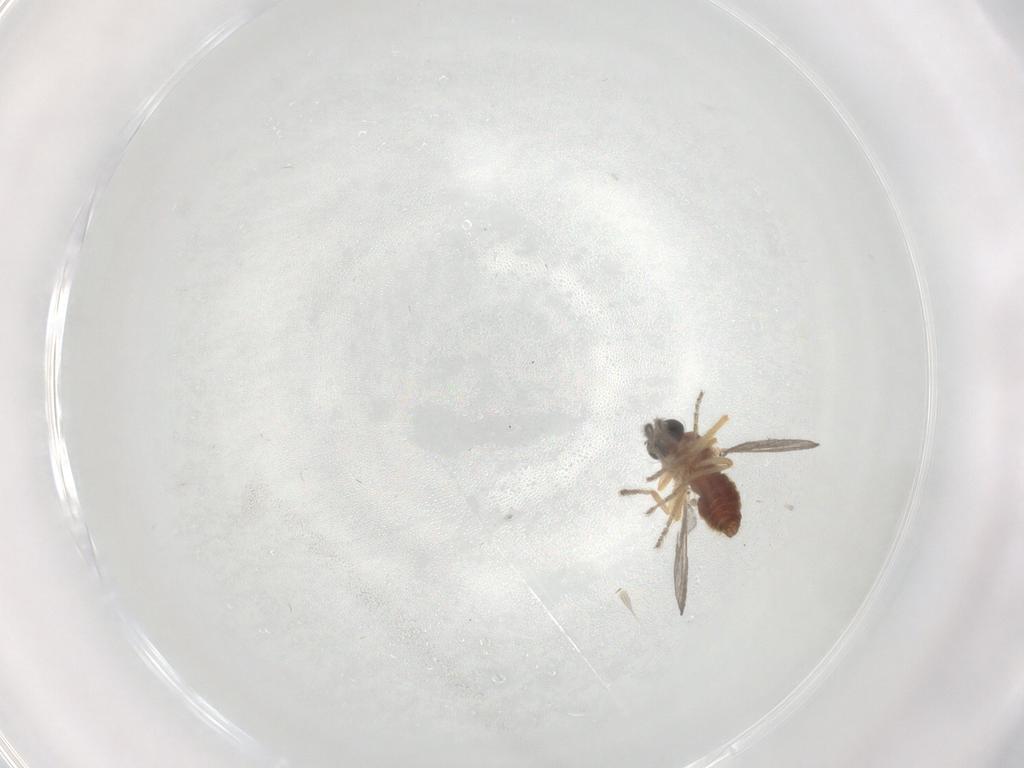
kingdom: Animalia
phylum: Arthropoda
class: Insecta
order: Diptera
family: Ceratopogonidae
